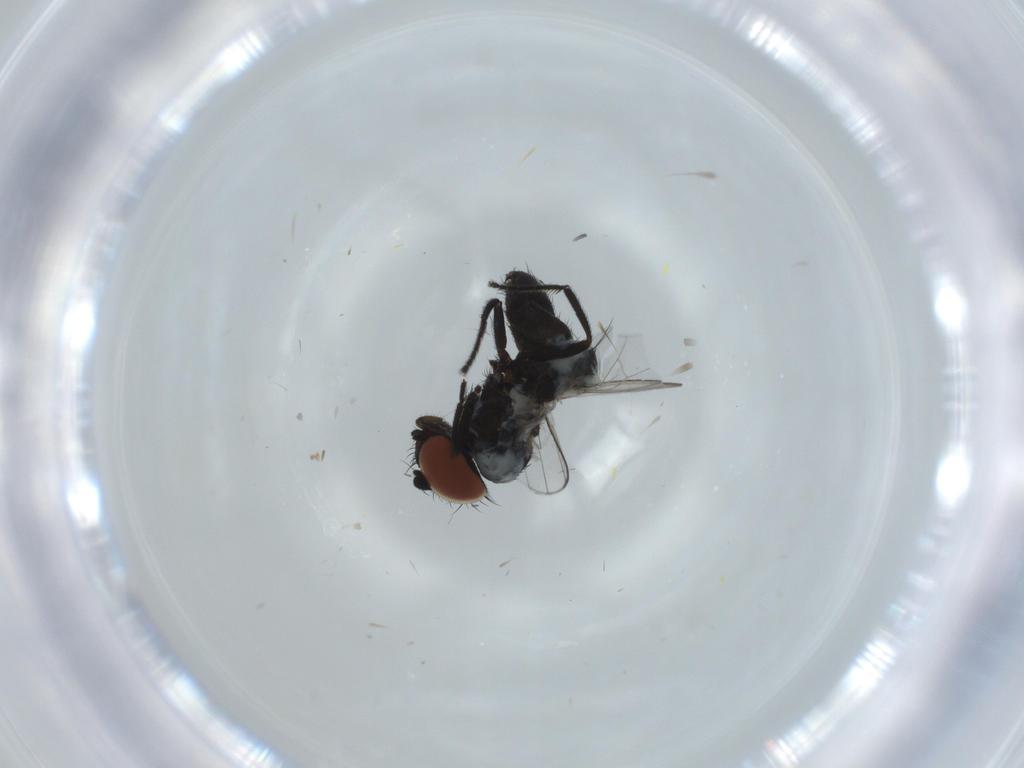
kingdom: Animalia
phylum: Arthropoda
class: Insecta
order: Diptera
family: Milichiidae
